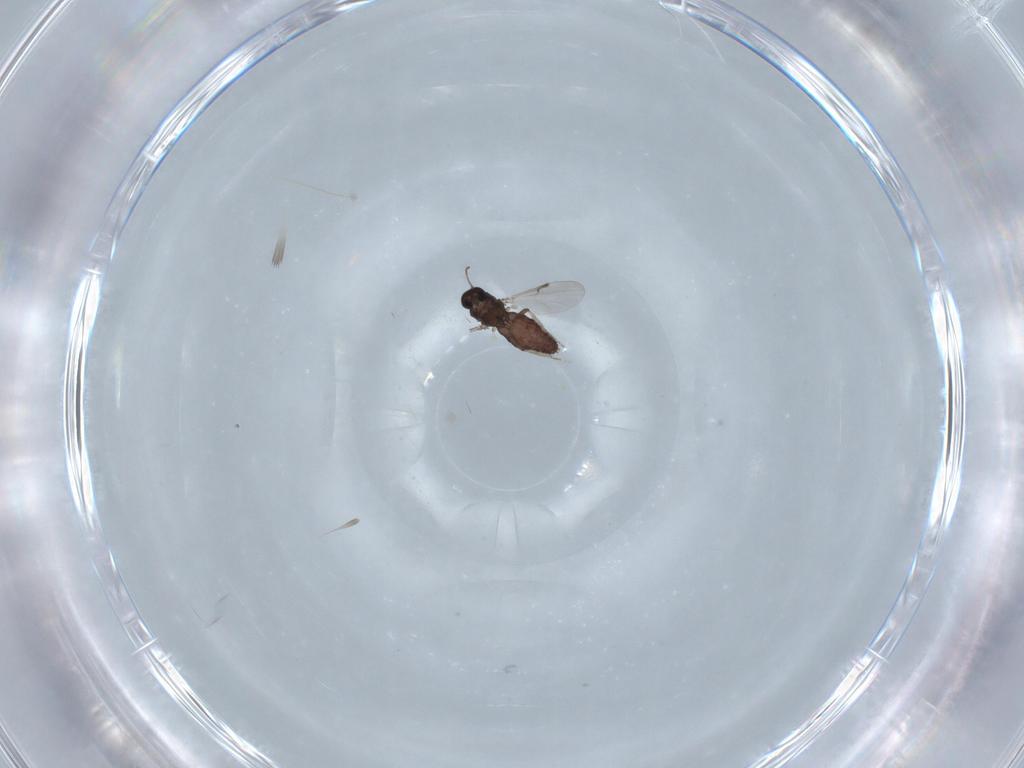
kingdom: Animalia
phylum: Arthropoda
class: Insecta
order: Diptera
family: Ceratopogonidae
